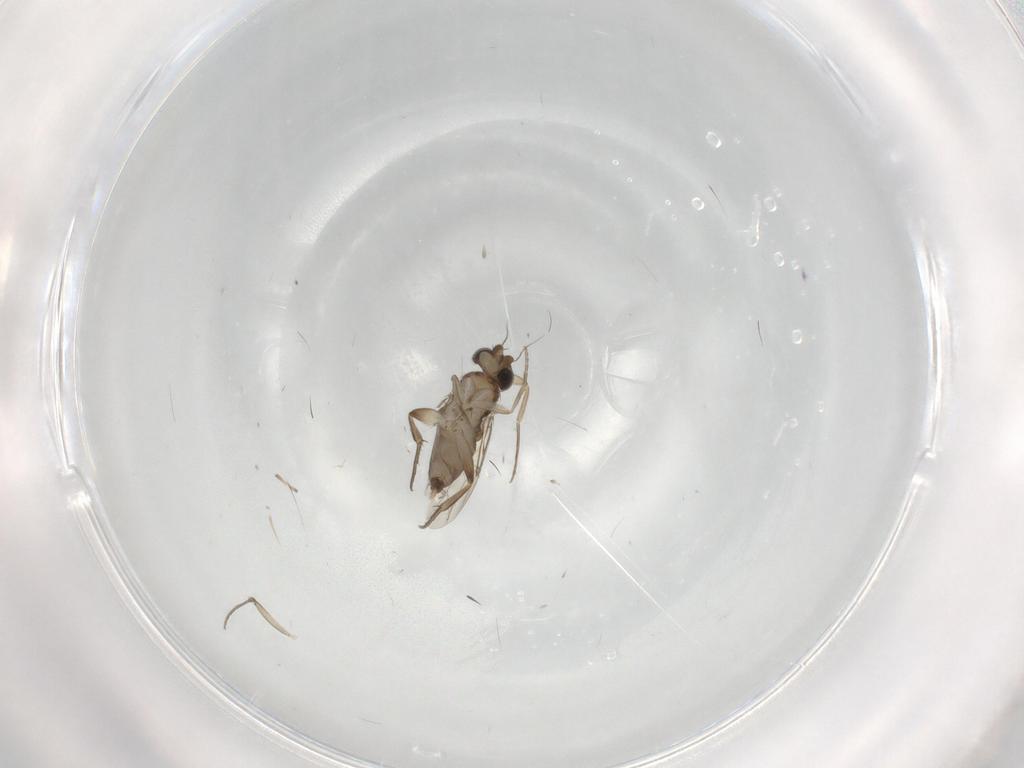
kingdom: Animalia
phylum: Arthropoda
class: Insecta
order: Diptera
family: Phoridae
